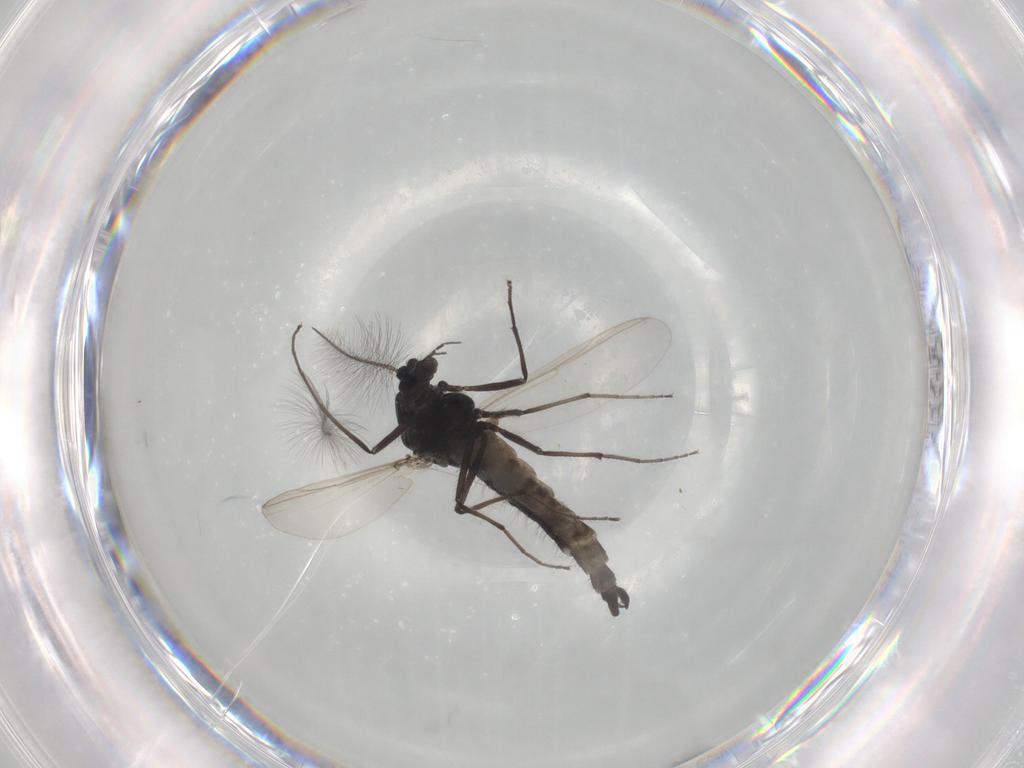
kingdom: Animalia
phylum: Arthropoda
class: Insecta
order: Diptera
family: Chironomidae
